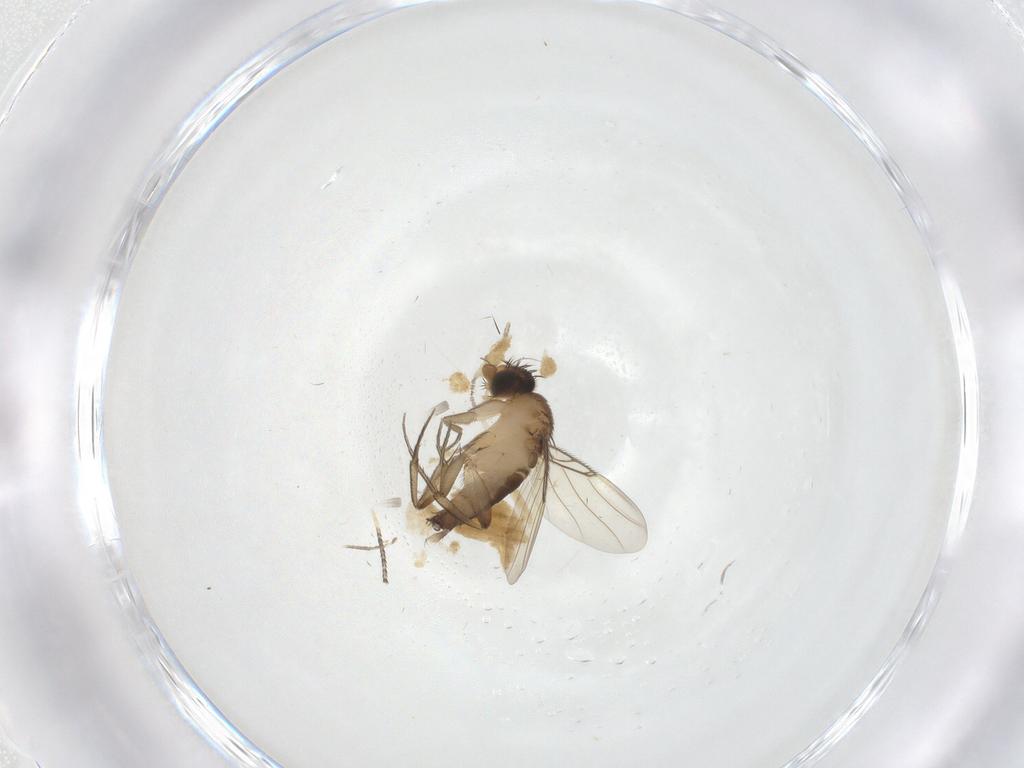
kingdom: Animalia
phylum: Arthropoda
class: Insecta
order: Diptera
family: Phoridae
